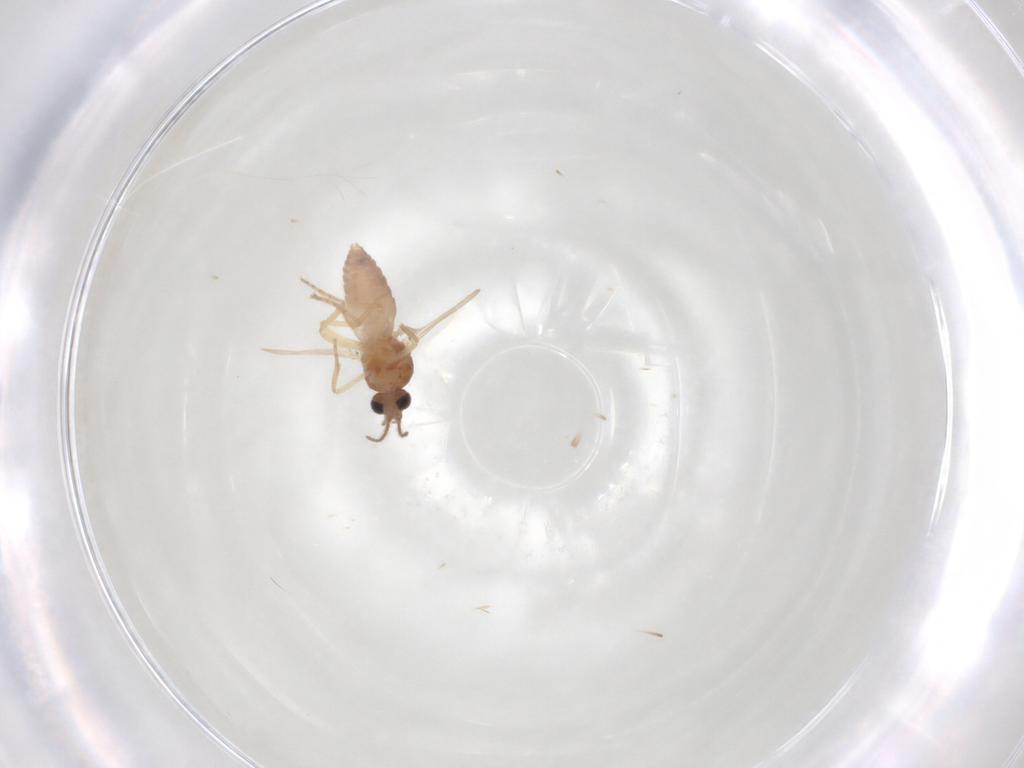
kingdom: Animalia
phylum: Arthropoda
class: Insecta
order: Diptera
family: Cecidomyiidae
